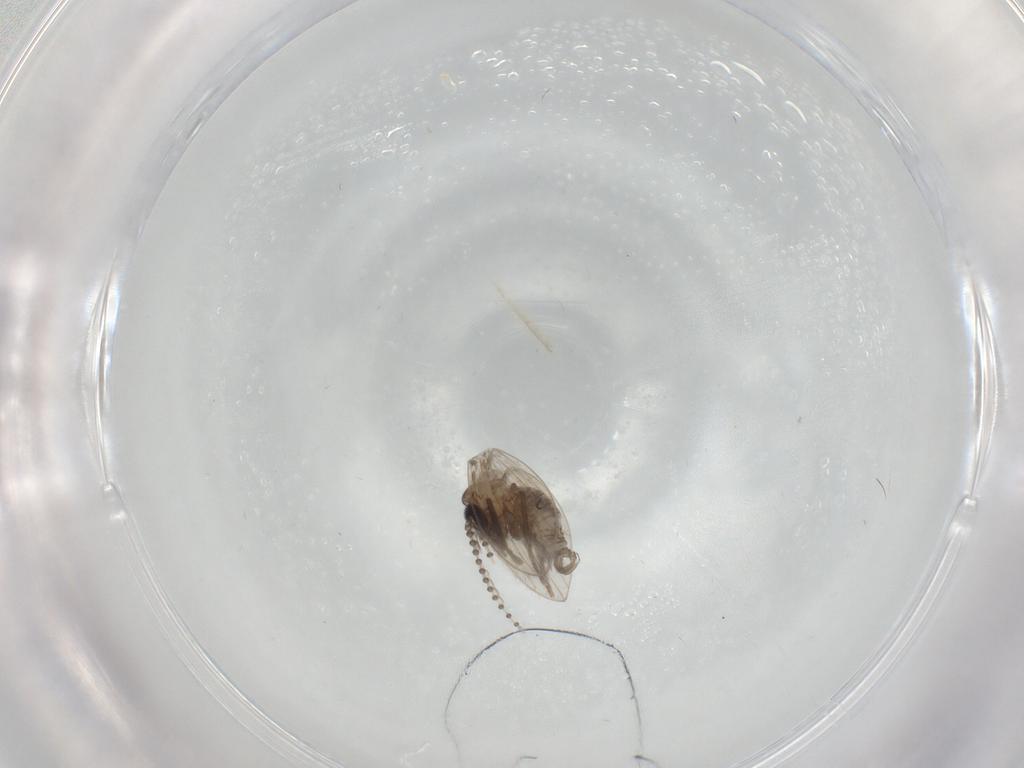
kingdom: Animalia
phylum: Arthropoda
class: Insecta
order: Diptera
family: Psychodidae
